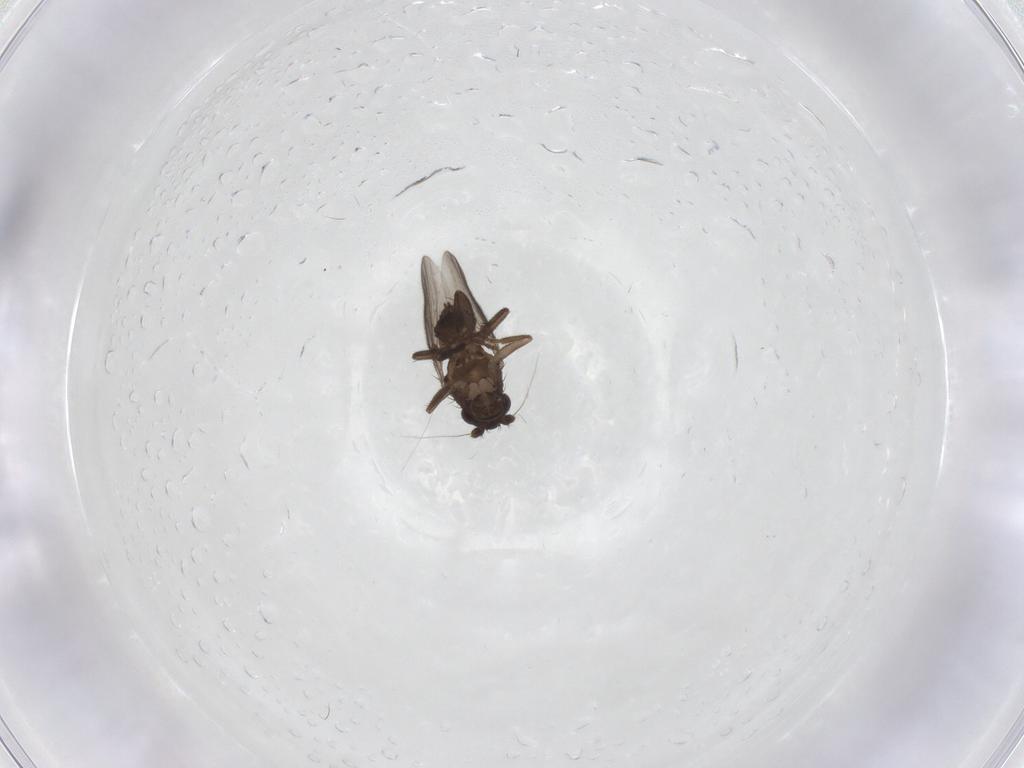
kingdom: Animalia
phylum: Arthropoda
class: Insecta
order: Diptera
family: Sphaeroceridae
